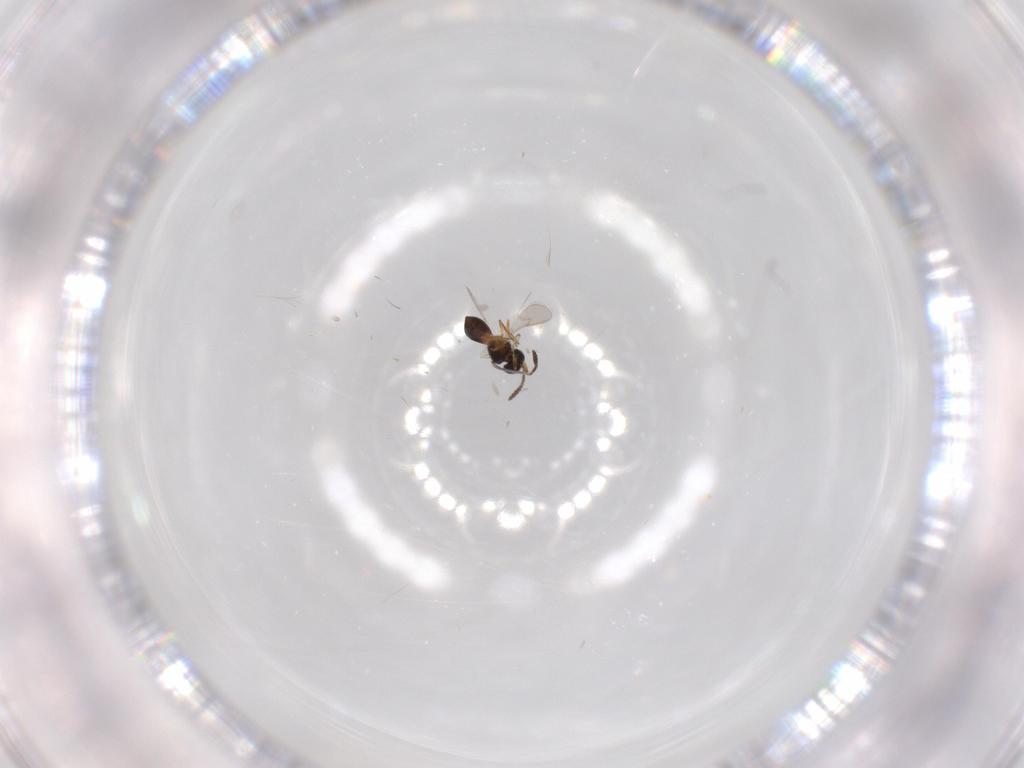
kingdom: Animalia
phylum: Arthropoda
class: Insecta
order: Hymenoptera
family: Scelionidae
